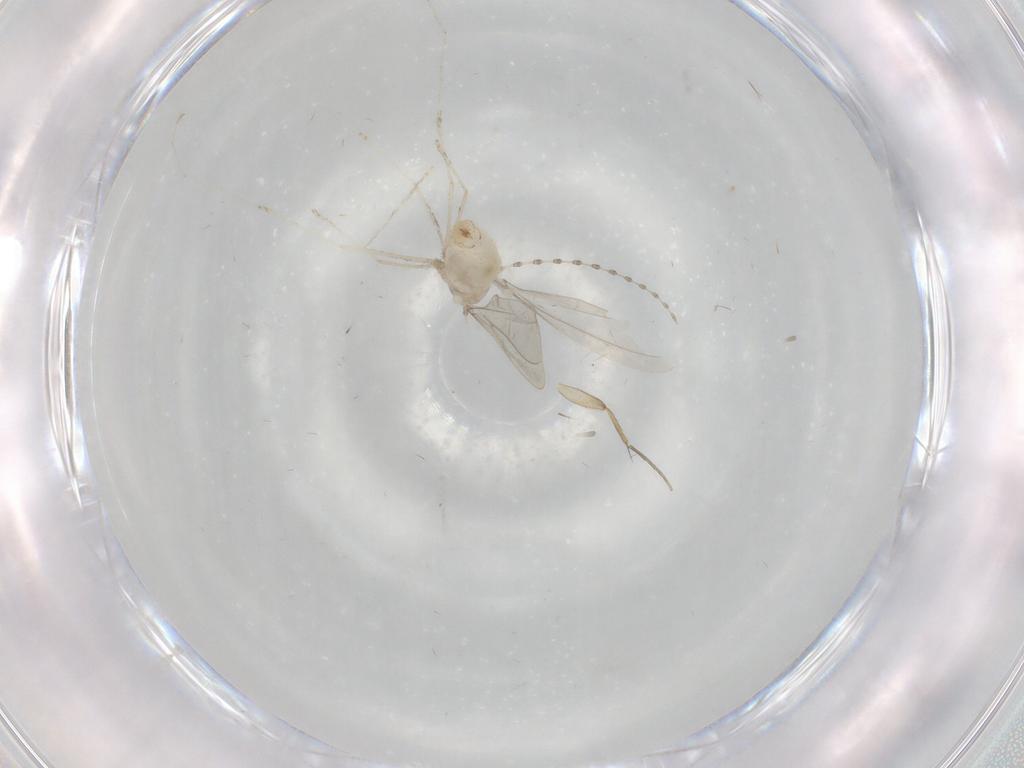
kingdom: Animalia
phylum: Arthropoda
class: Insecta
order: Diptera
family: Cecidomyiidae
